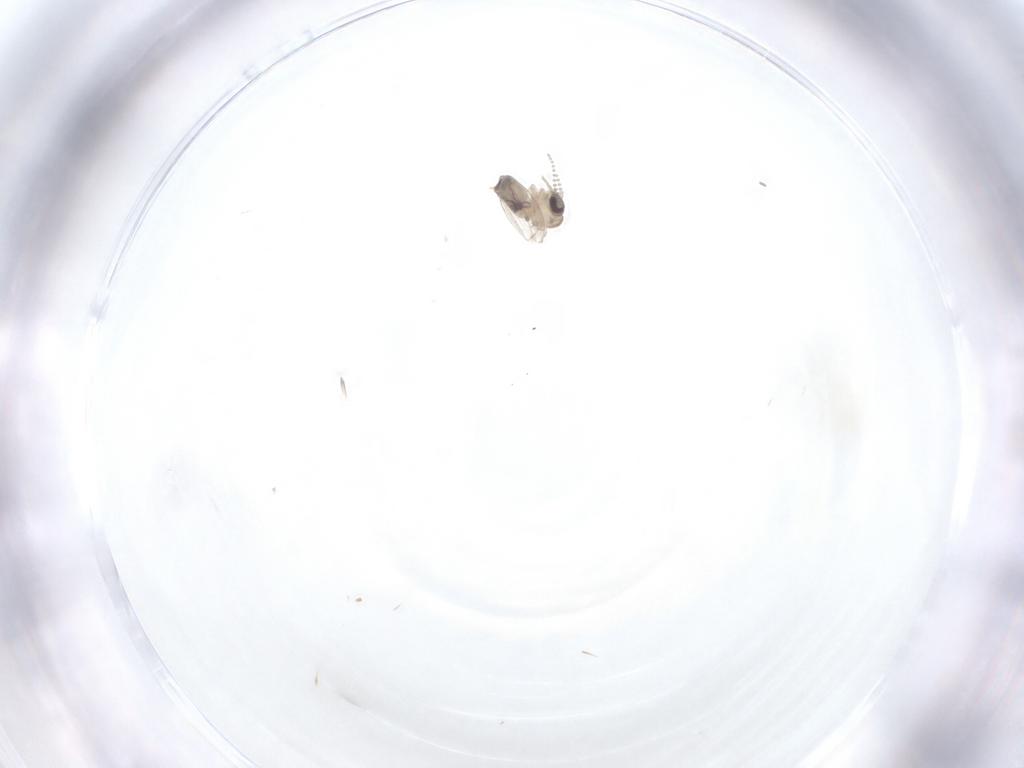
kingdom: Animalia
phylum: Arthropoda
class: Insecta
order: Diptera
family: Psychodidae
